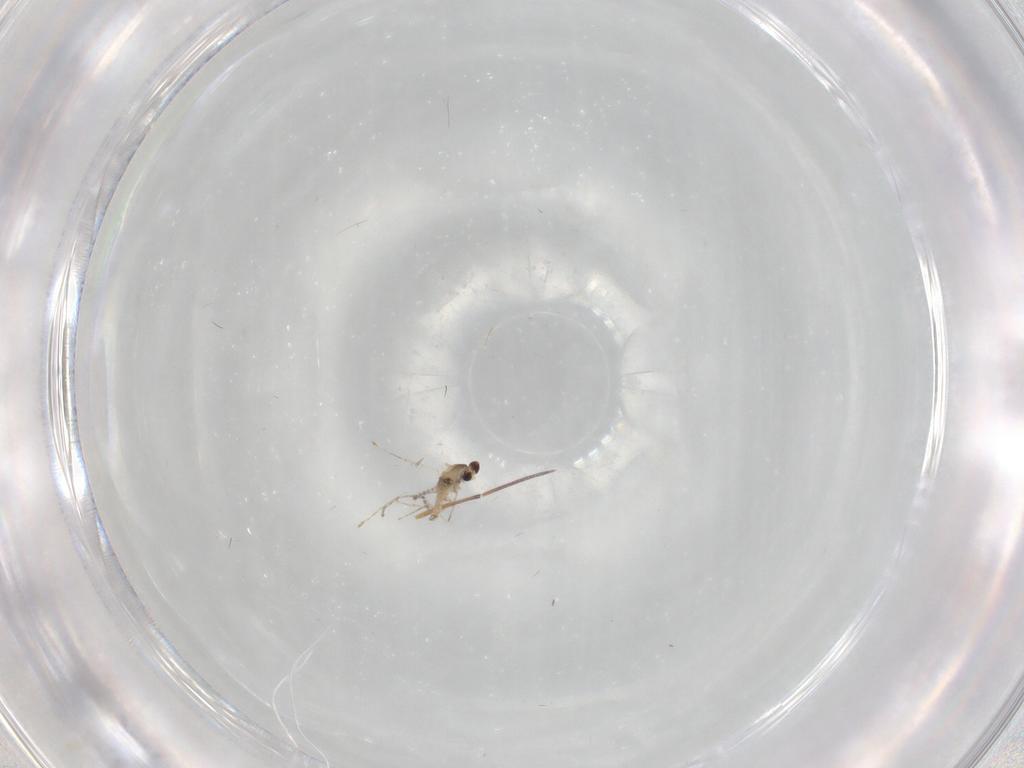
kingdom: Animalia
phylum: Arthropoda
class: Insecta
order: Diptera
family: Cecidomyiidae
